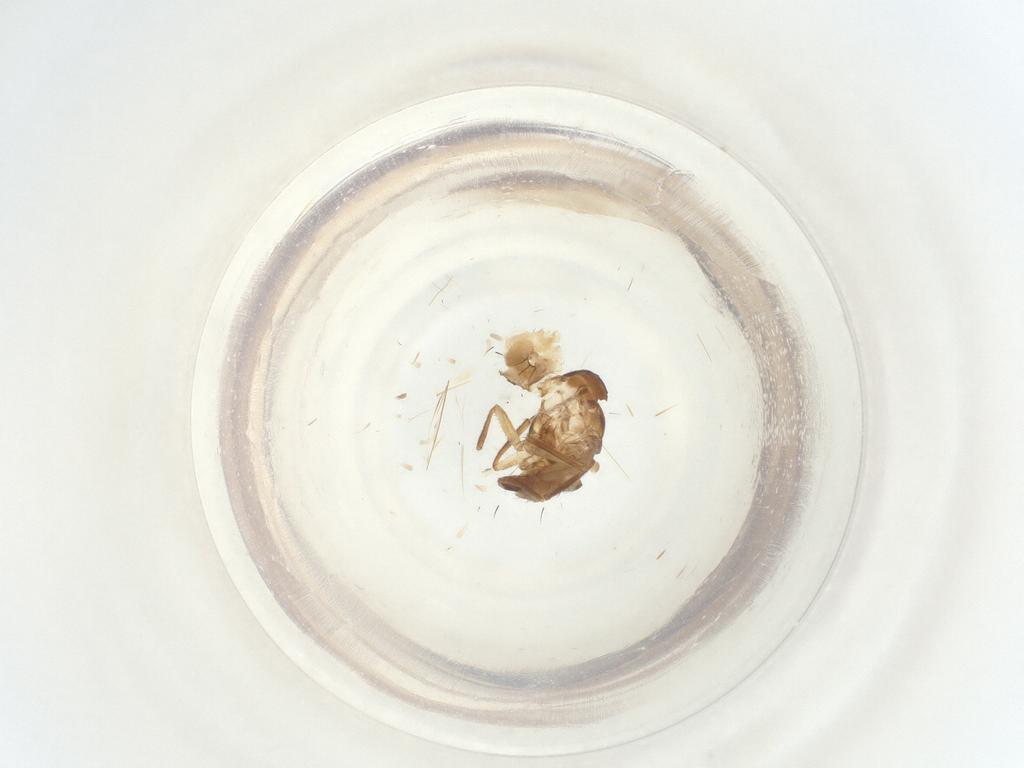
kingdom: Animalia
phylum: Arthropoda
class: Insecta
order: Diptera
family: Agromyzidae
